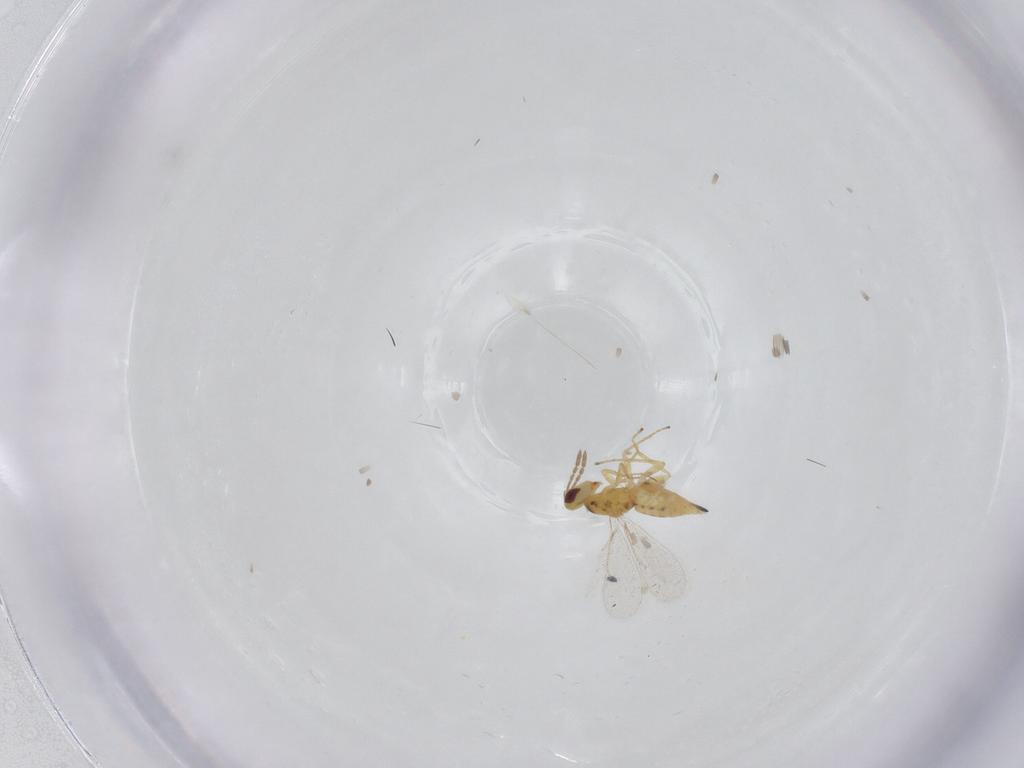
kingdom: Animalia
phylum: Arthropoda
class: Insecta
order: Hymenoptera
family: Eulophidae
